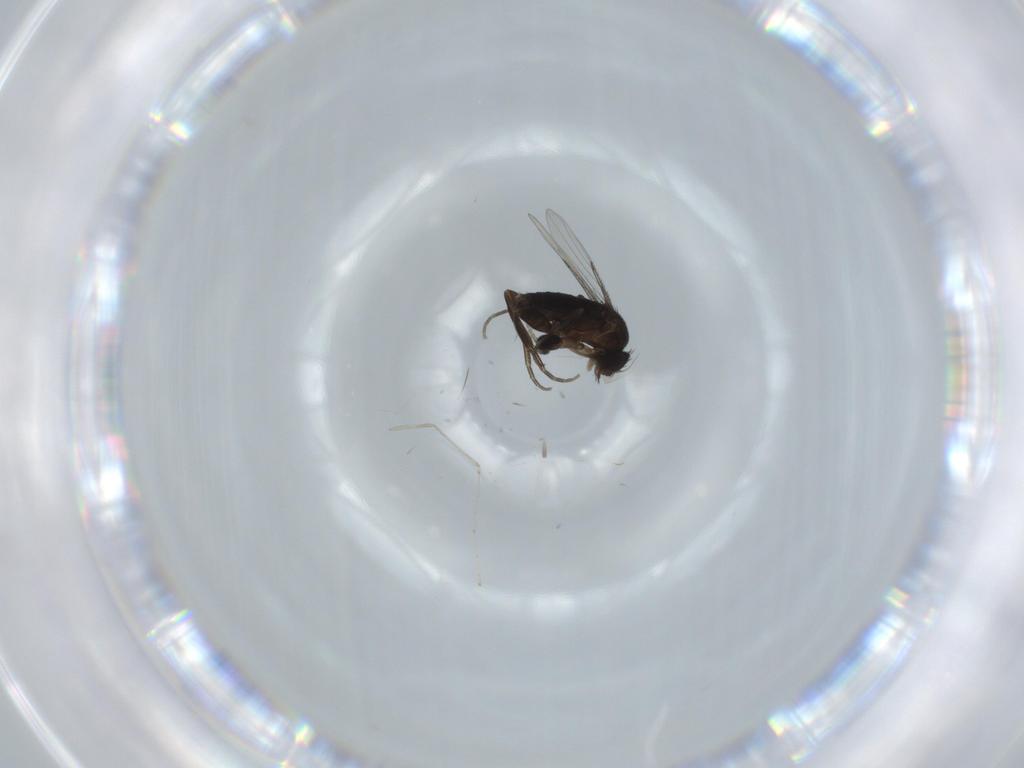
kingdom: Animalia
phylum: Arthropoda
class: Insecta
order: Diptera
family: Phoridae
